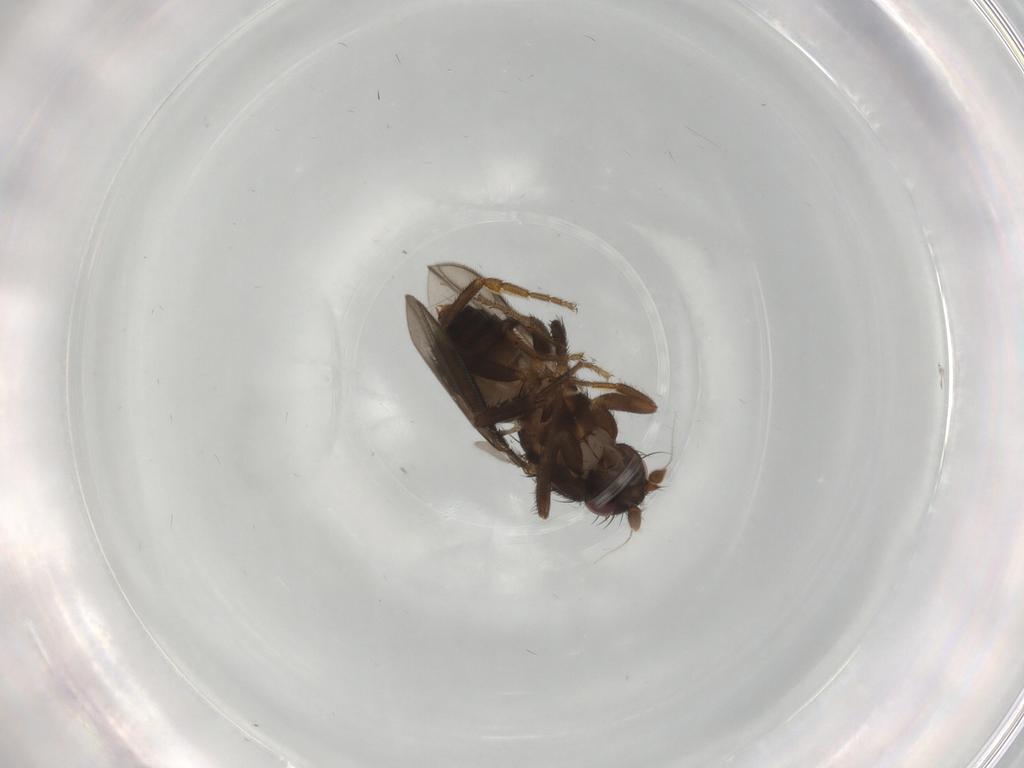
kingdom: Animalia
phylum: Arthropoda
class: Insecta
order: Diptera
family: Sphaeroceridae
